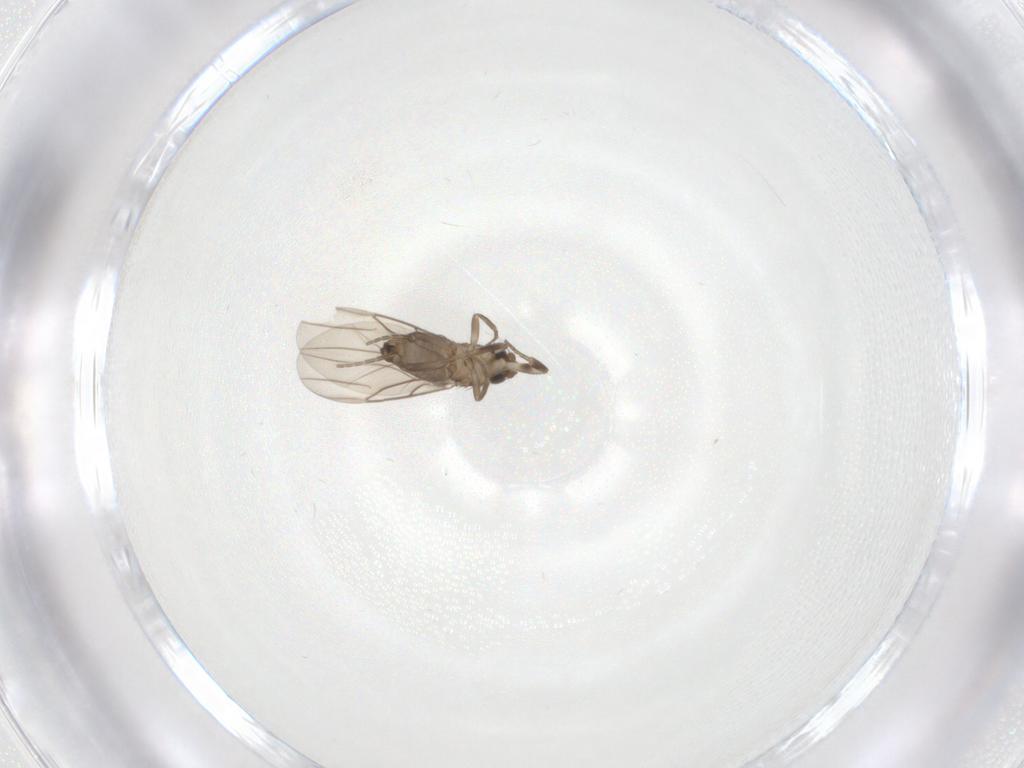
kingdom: Animalia
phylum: Arthropoda
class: Insecta
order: Diptera
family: Phoridae
